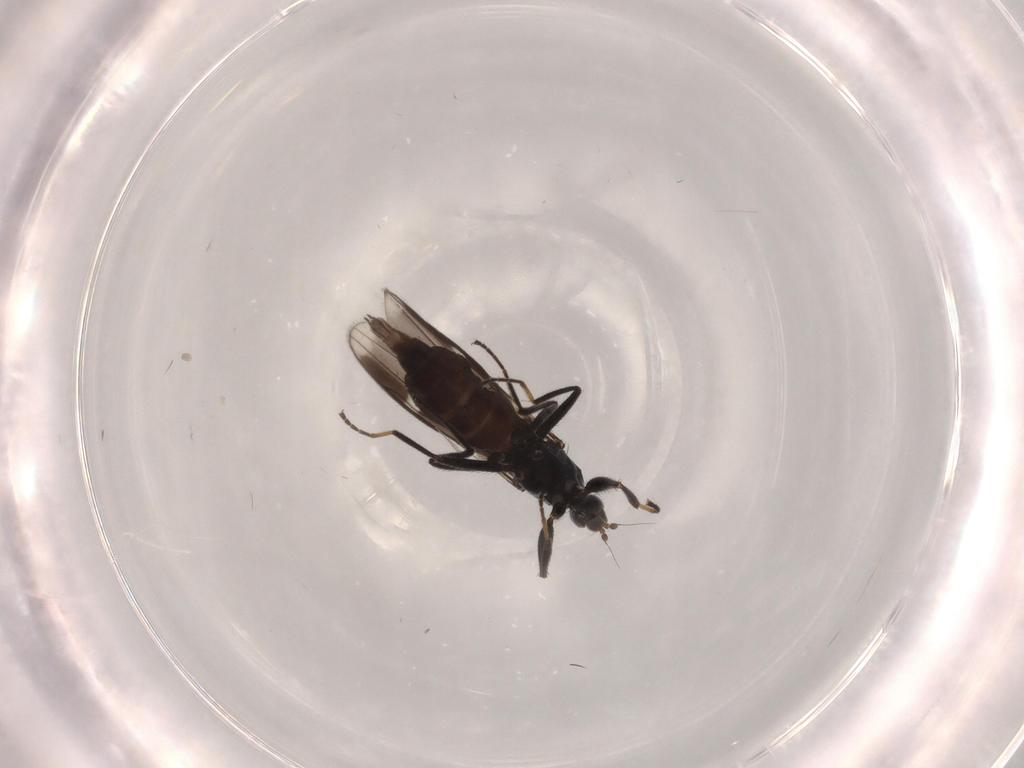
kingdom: Animalia
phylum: Arthropoda
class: Insecta
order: Diptera
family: Hybotidae
